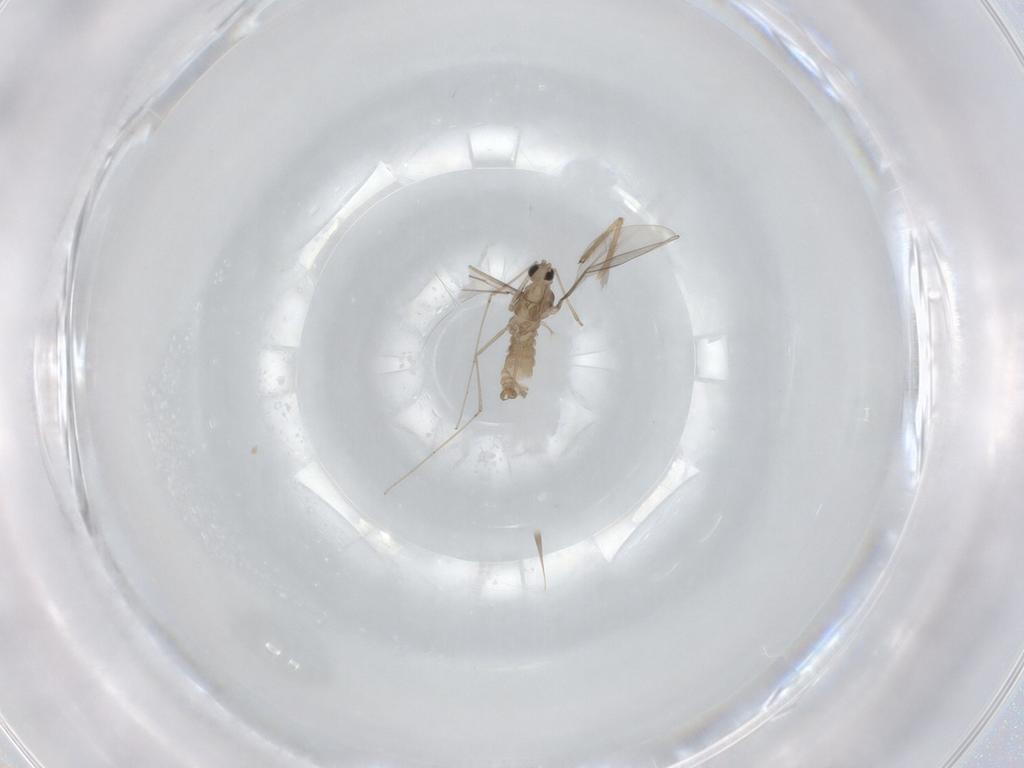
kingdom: Animalia
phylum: Arthropoda
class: Insecta
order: Diptera
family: Cecidomyiidae
